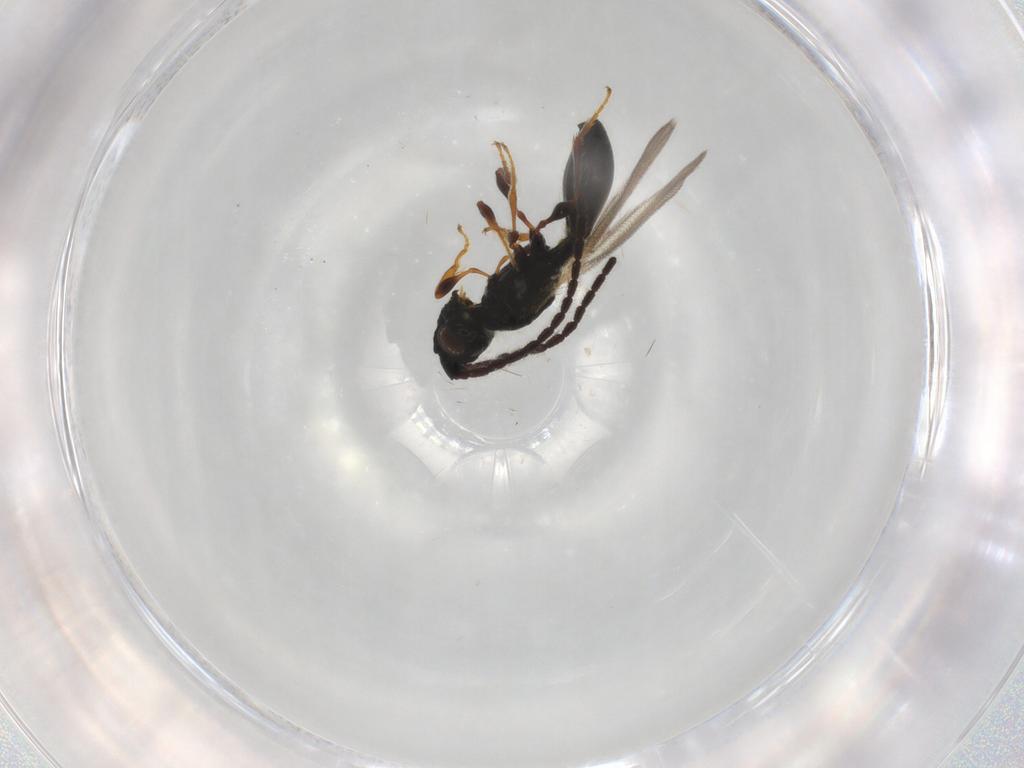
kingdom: Animalia
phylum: Arthropoda
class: Insecta
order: Hymenoptera
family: Diapriidae
